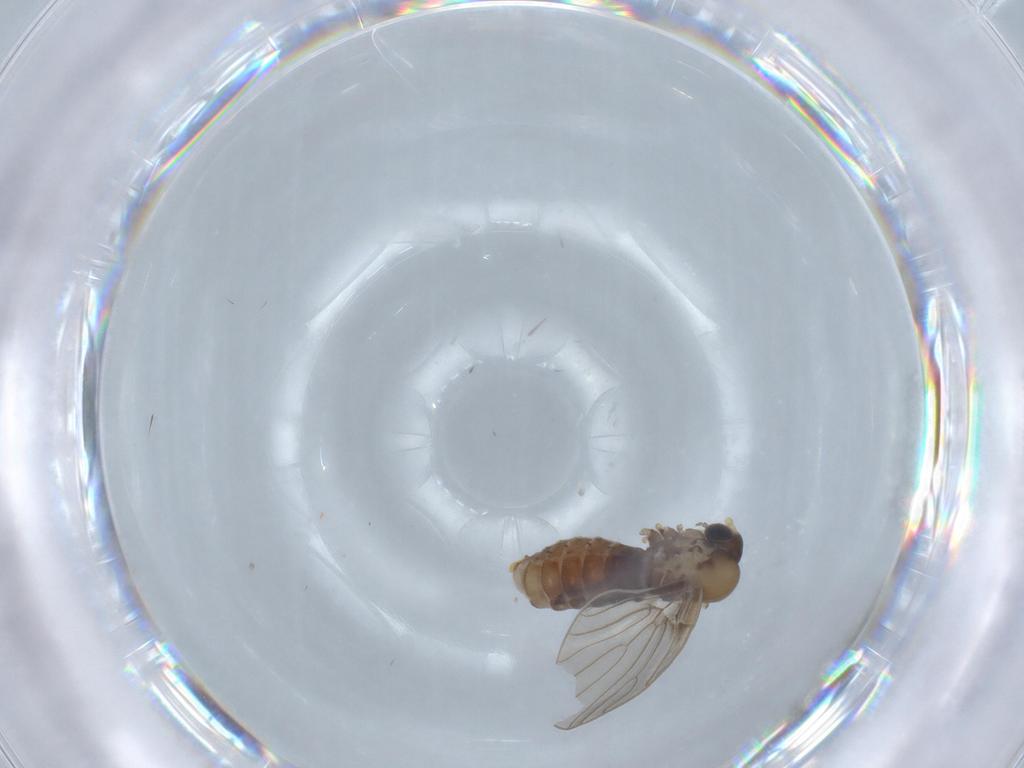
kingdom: Animalia
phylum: Arthropoda
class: Insecta
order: Diptera
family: Psychodidae
